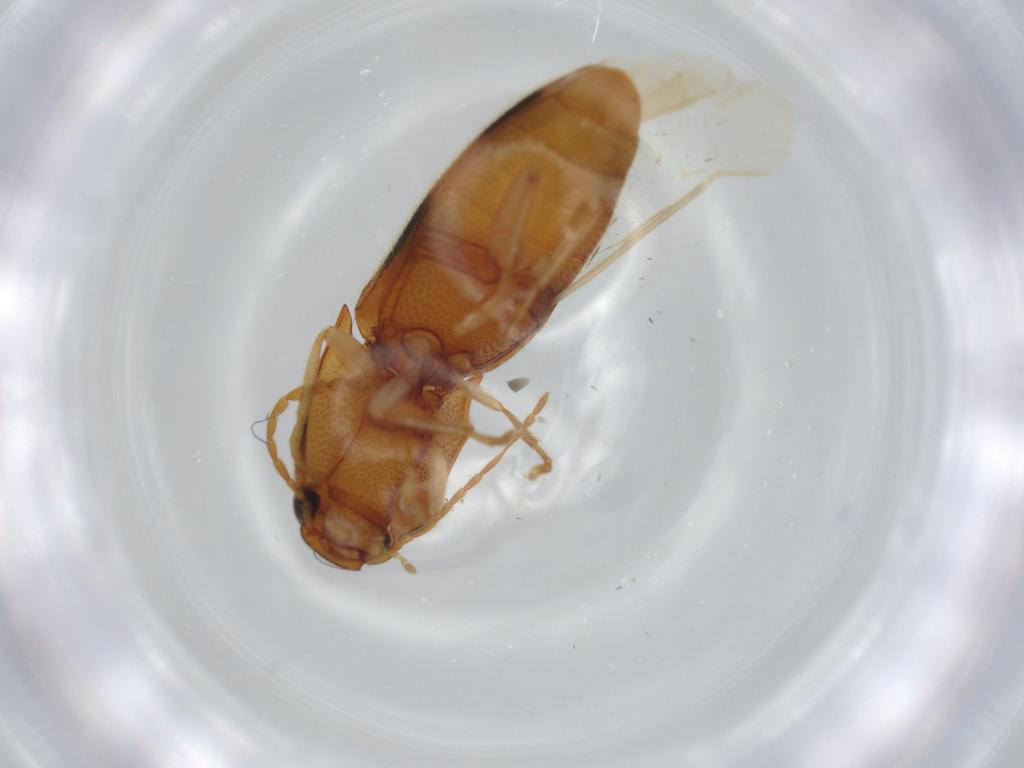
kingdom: Animalia
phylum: Arthropoda
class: Insecta
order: Coleoptera
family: Elateridae
